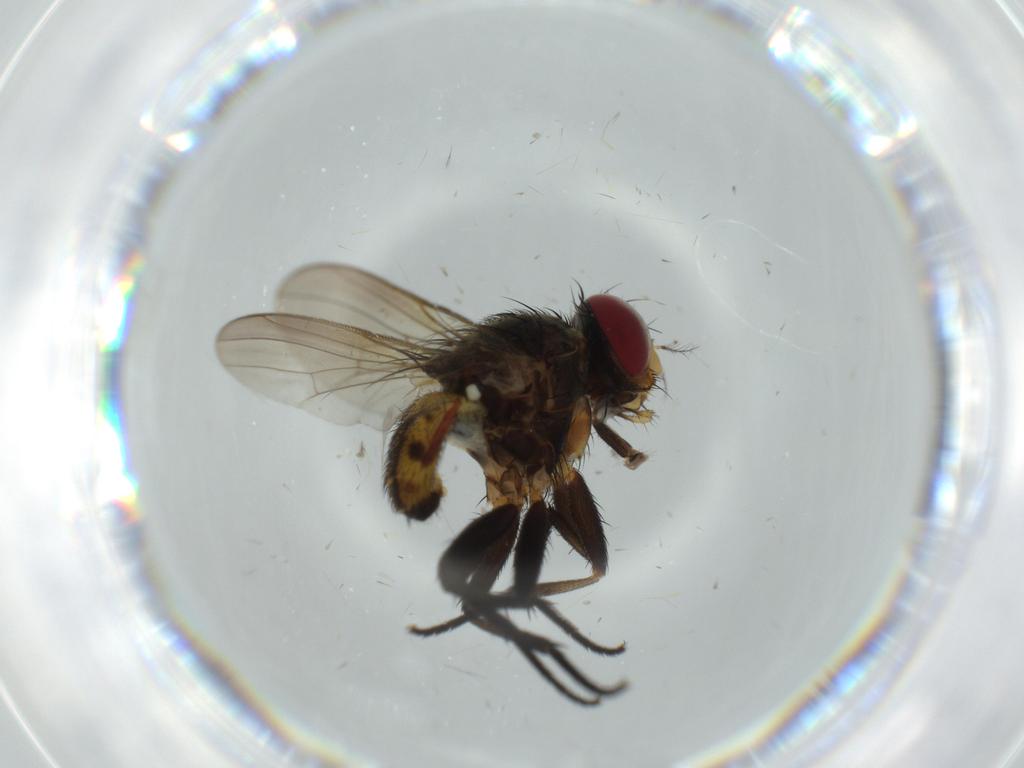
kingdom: Animalia
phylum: Arthropoda
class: Insecta
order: Diptera
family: Anthomyiidae
